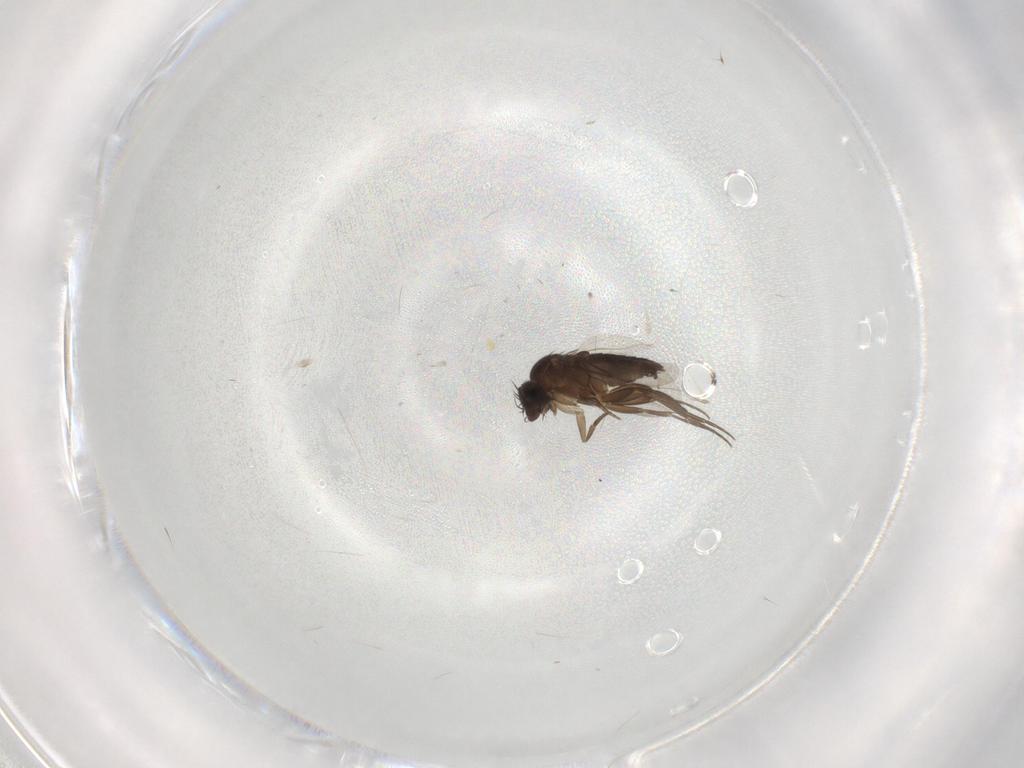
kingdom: Animalia
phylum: Arthropoda
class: Insecta
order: Diptera
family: Phoridae
